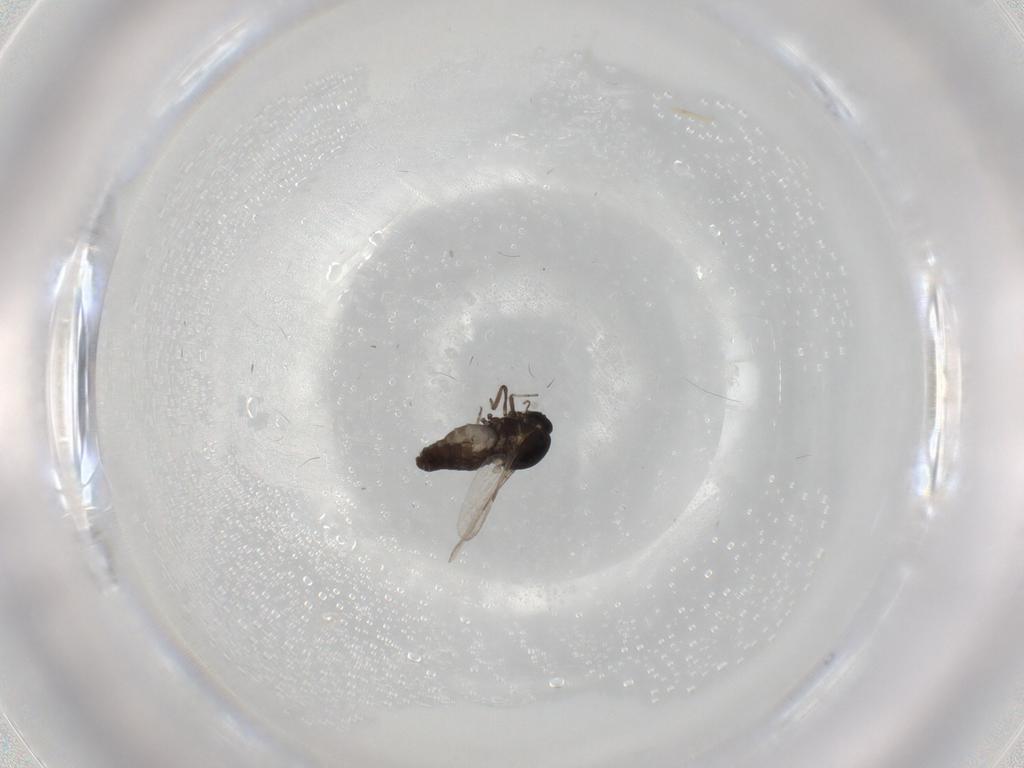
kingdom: Animalia
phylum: Arthropoda
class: Insecta
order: Diptera
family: Ceratopogonidae
